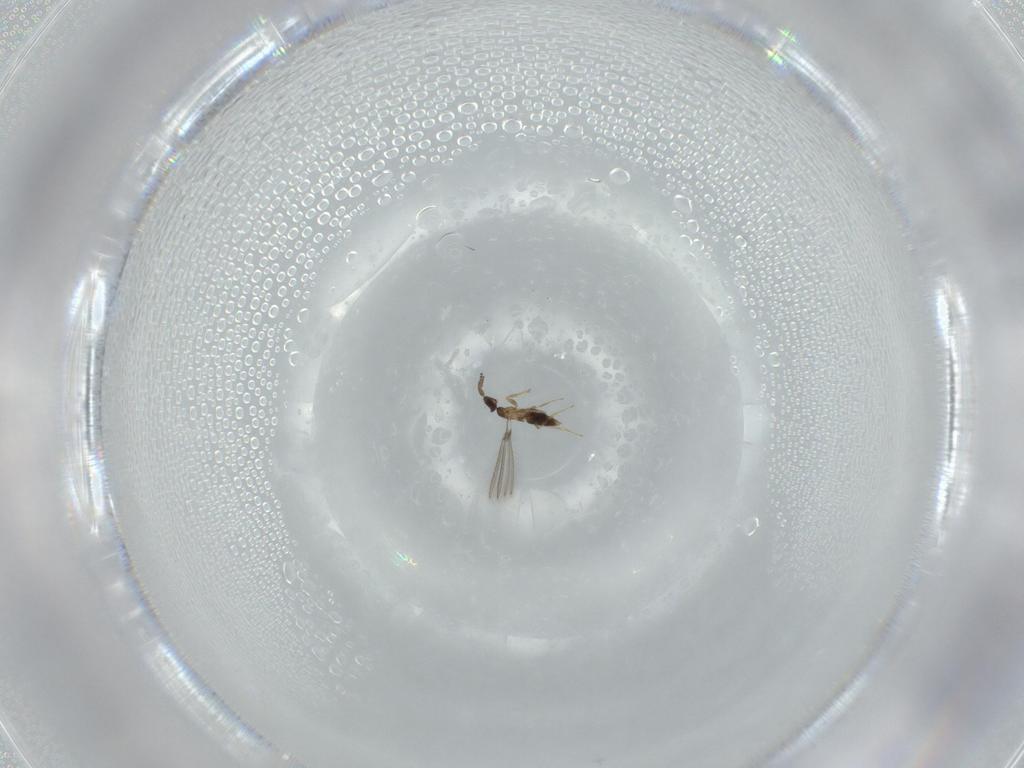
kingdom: Animalia
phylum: Arthropoda
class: Insecta
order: Hymenoptera
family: Mymaridae
